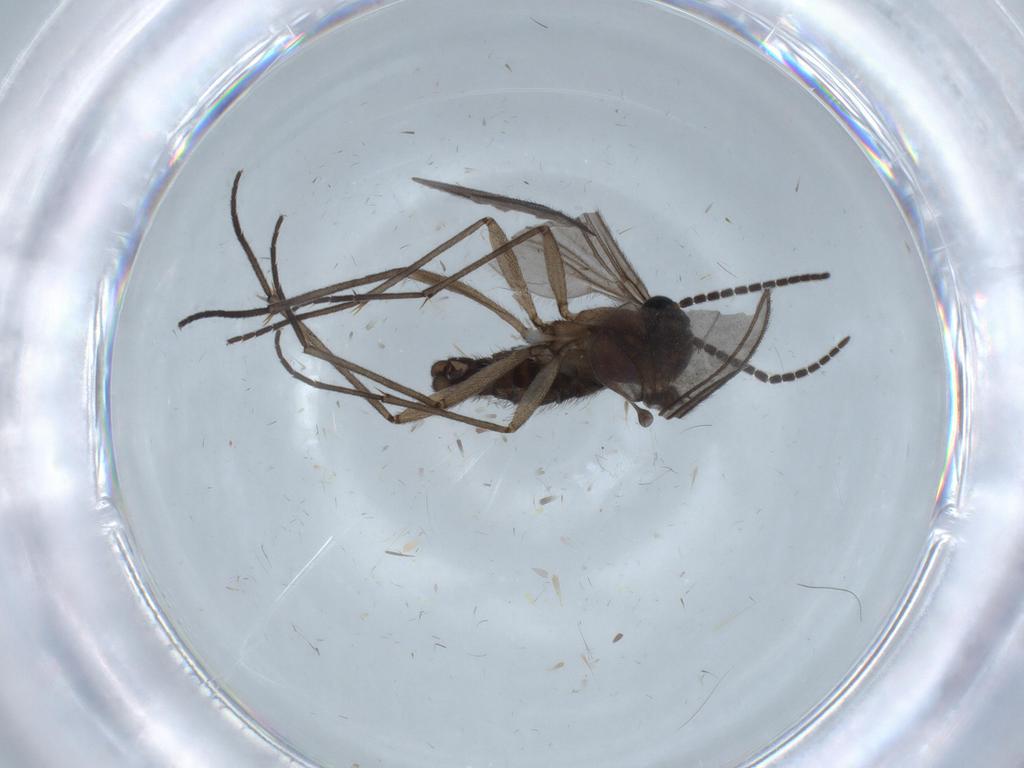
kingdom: Animalia
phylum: Arthropoda
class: Insecta
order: Diptera
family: Sciaridae
